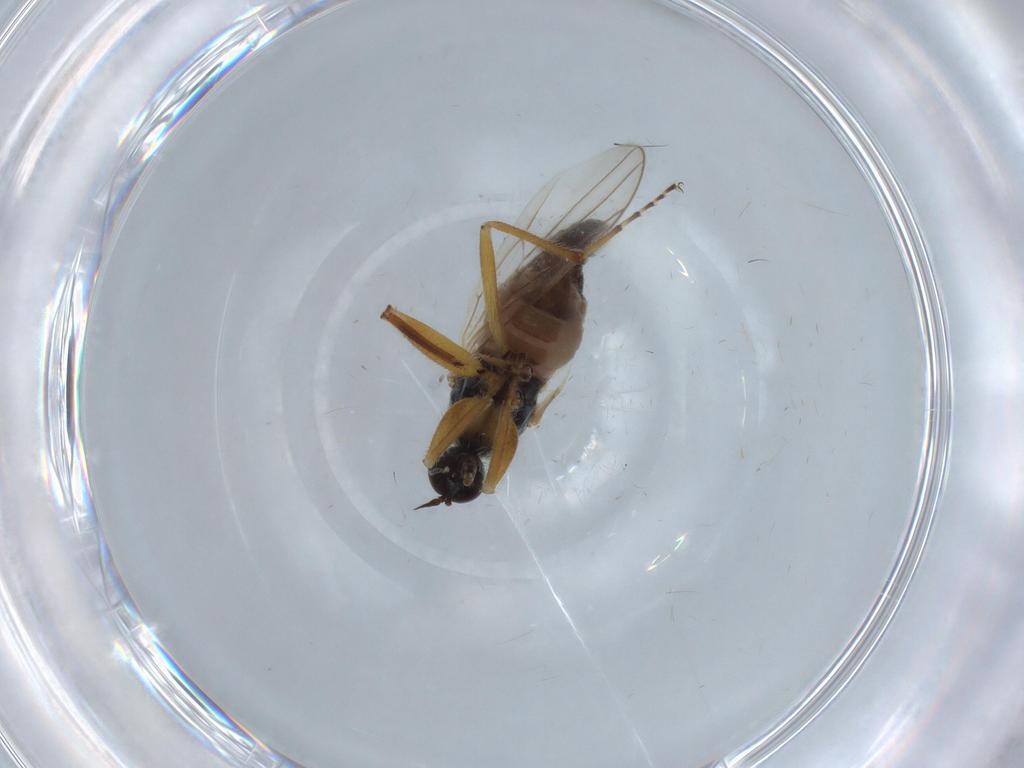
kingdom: Animalia
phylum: Arthropoda
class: Insecta
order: Diptera
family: Hybotidae
